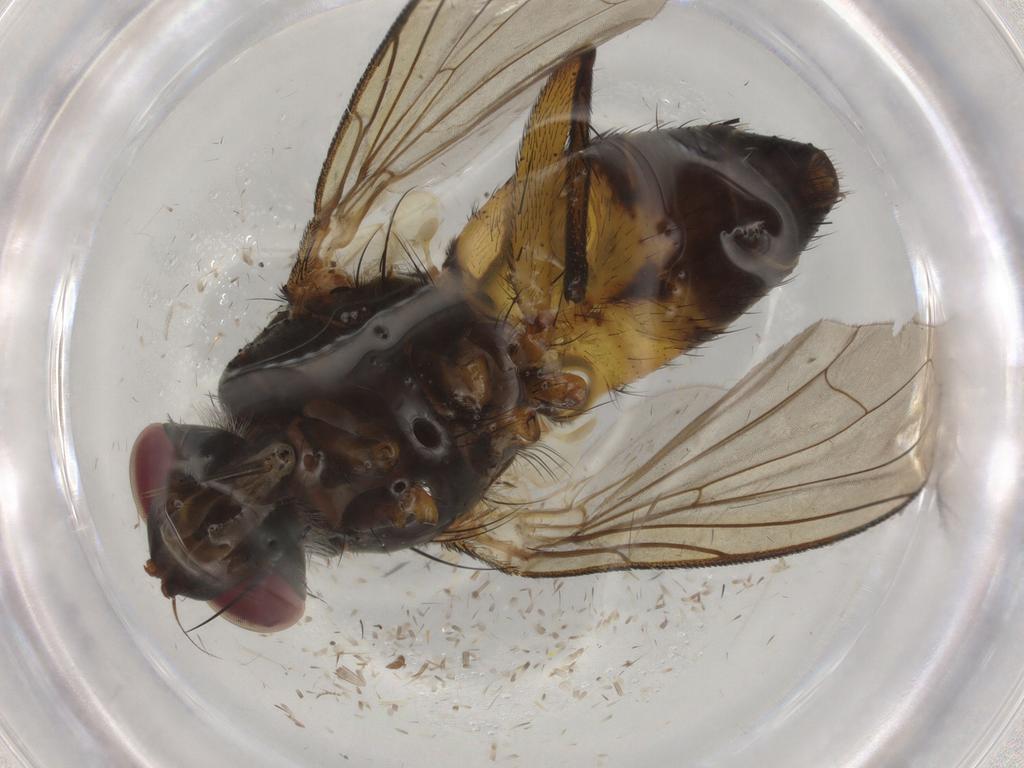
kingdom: Animalia
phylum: Arthropoda
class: Insecta
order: Diptera
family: Tachinidae
